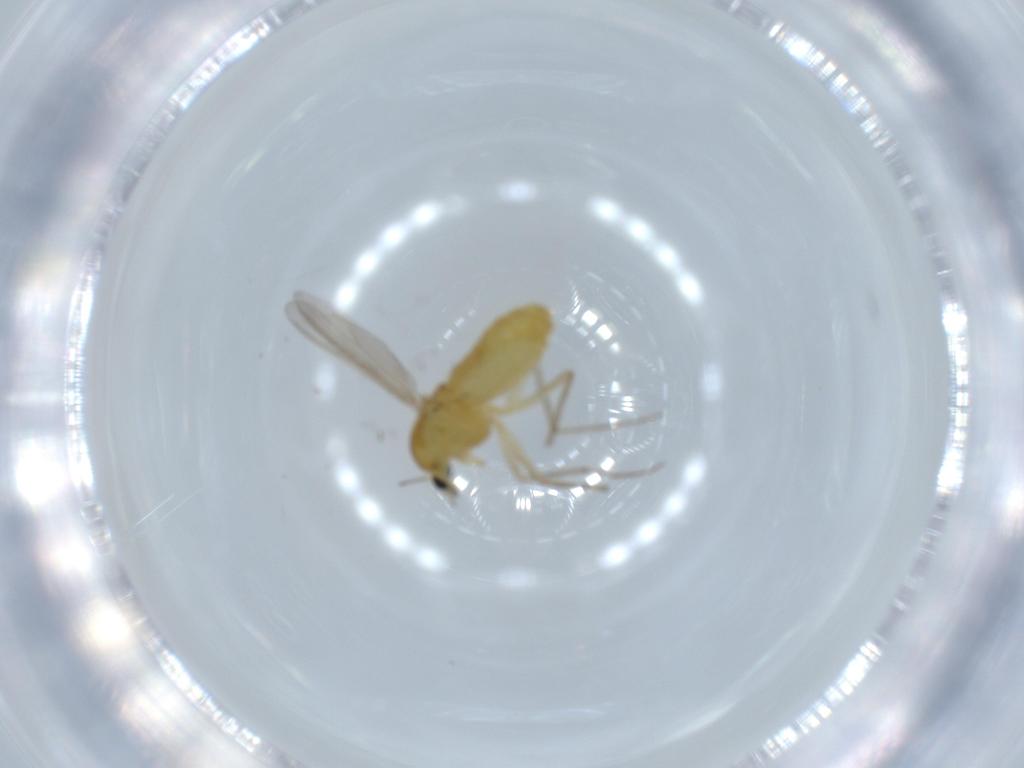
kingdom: Animalia
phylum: Arthropoda
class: Insecta
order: Diptera
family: Chironomidae
